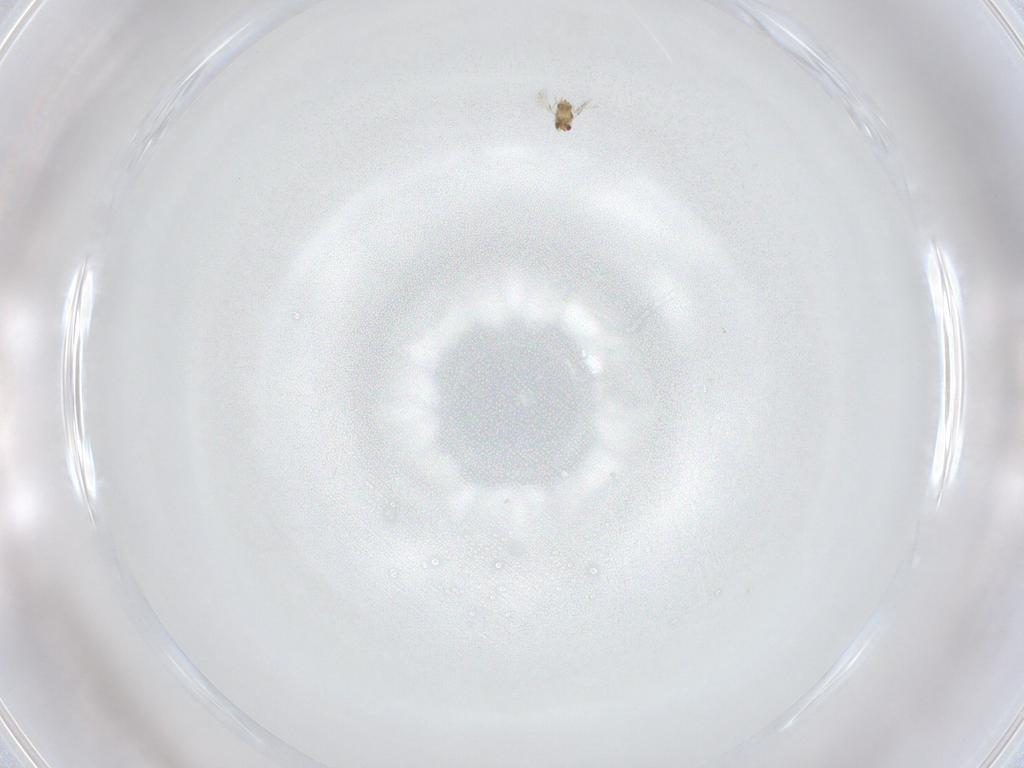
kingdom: Animalia
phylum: Arthropoda
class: Insecta
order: Hymenoptera
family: Aphelinidae
